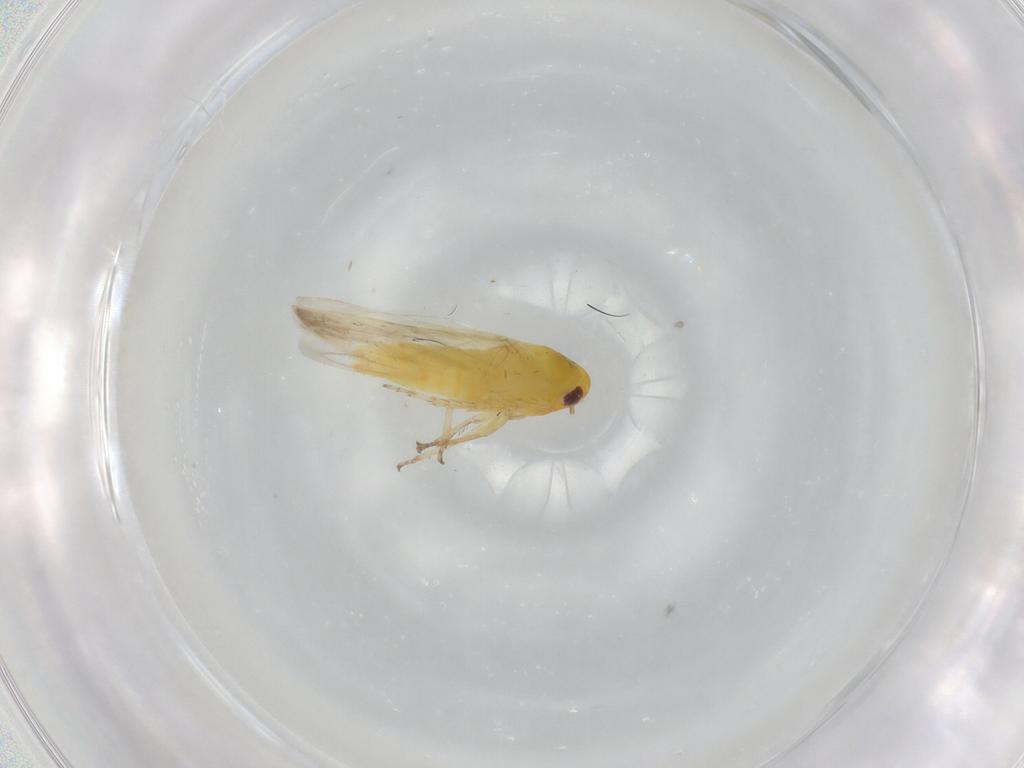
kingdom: Animalia
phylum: Arthropoda
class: Insecta
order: Hemiptera
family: Cicadellidae
